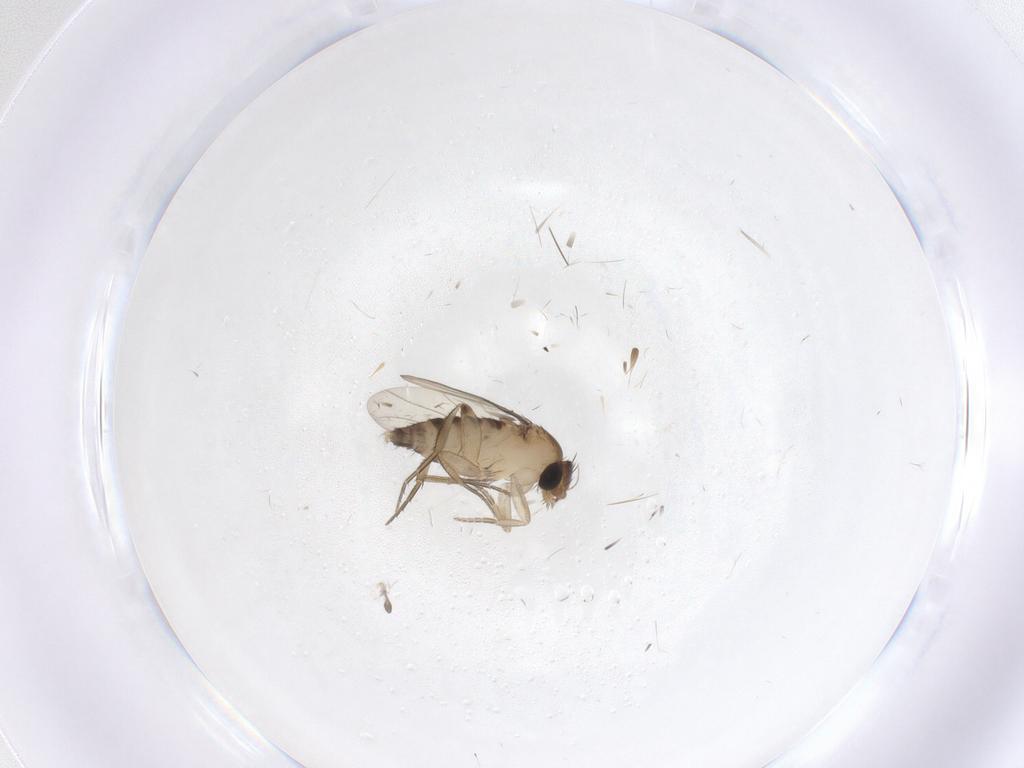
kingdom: Animalia
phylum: Arthropoda
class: Insecta
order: Diptera
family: Phoridae
